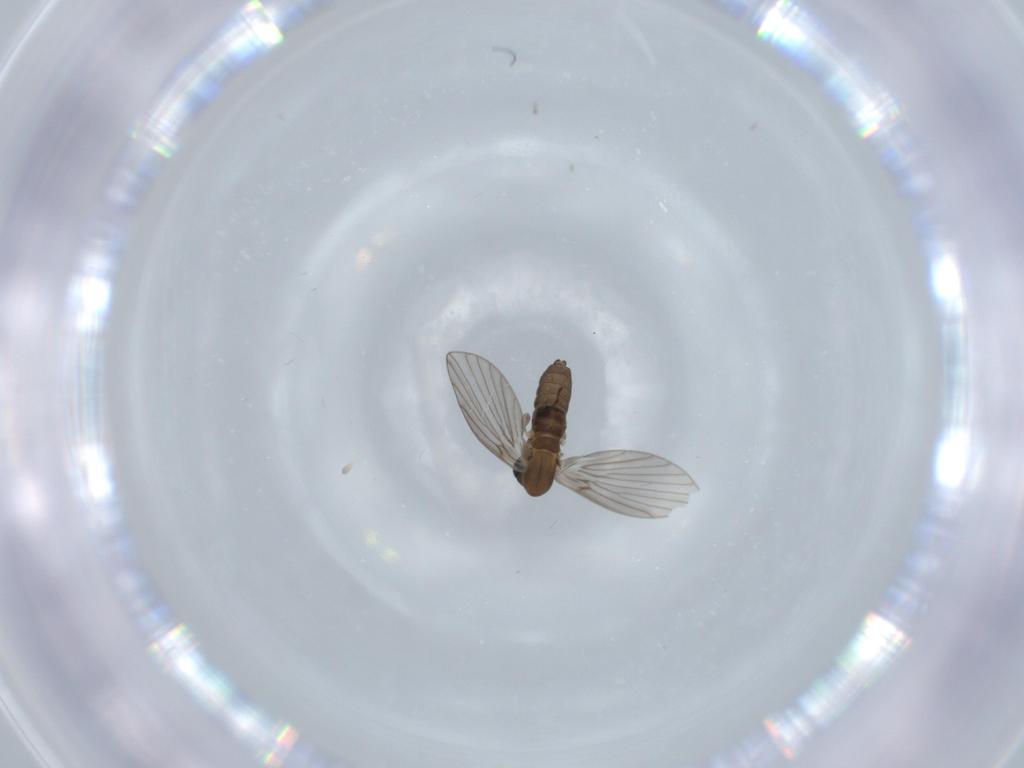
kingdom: Animalia
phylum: Arthropoda
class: Insecta
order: Diptera
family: Psychodidae
